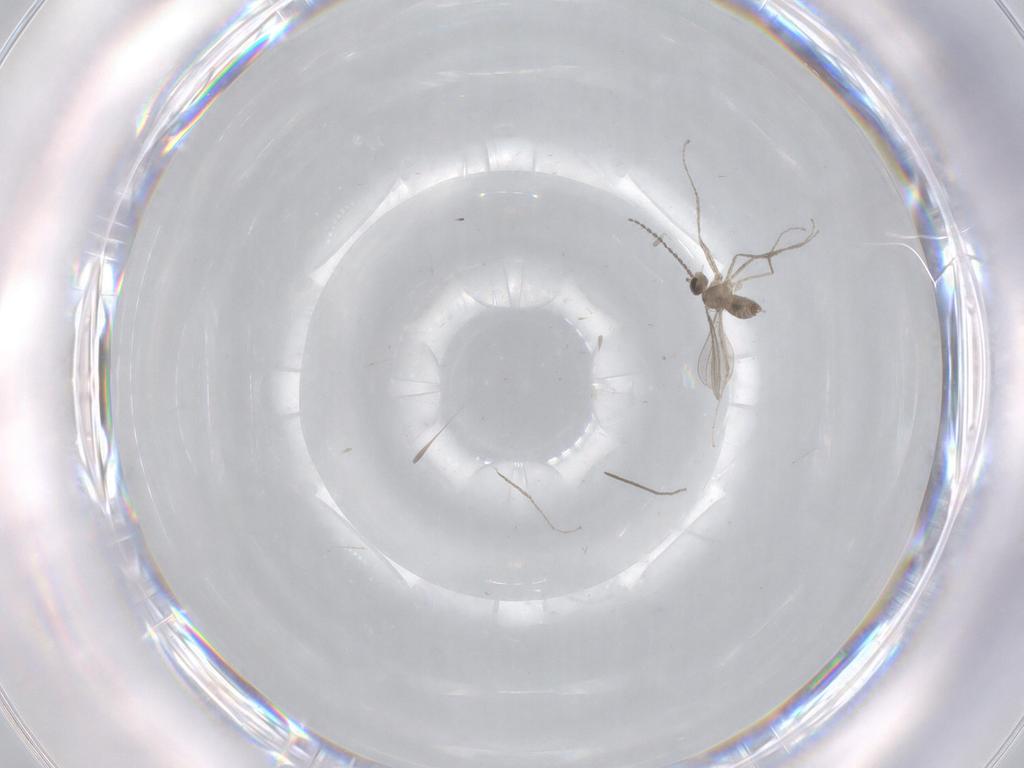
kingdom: Animalia
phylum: Arthropoda
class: Insecta
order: Diptera
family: Chironomidae
